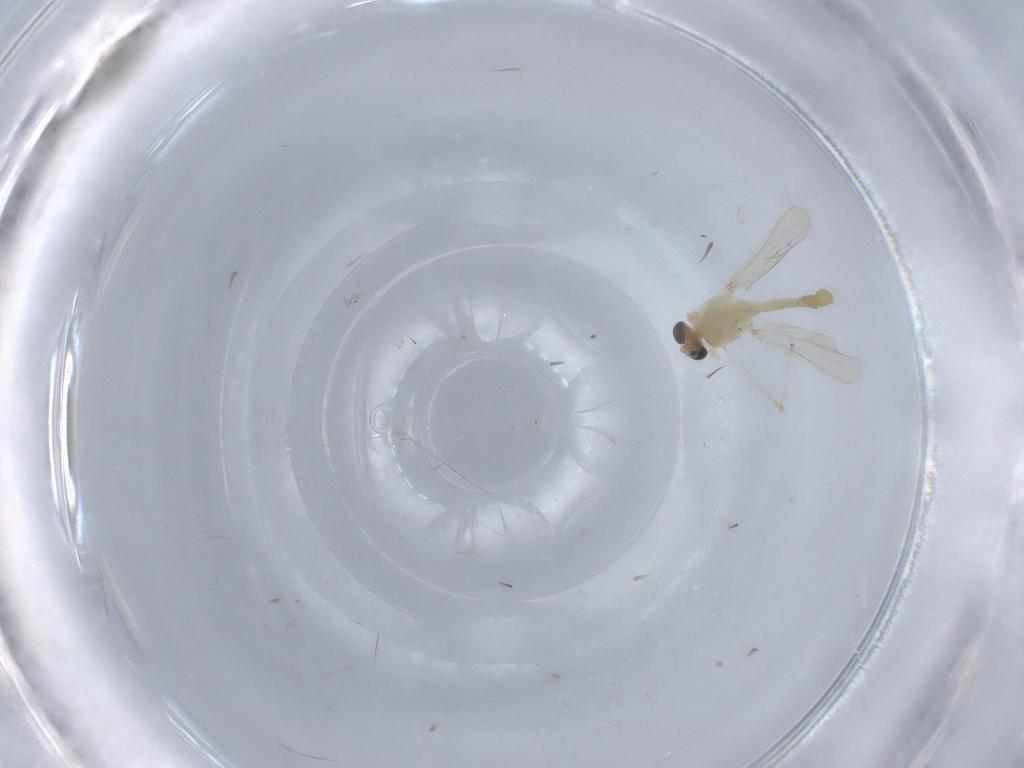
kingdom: Animalia
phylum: Arthropoda
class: Insecta
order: Diptera
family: Chironomidae
